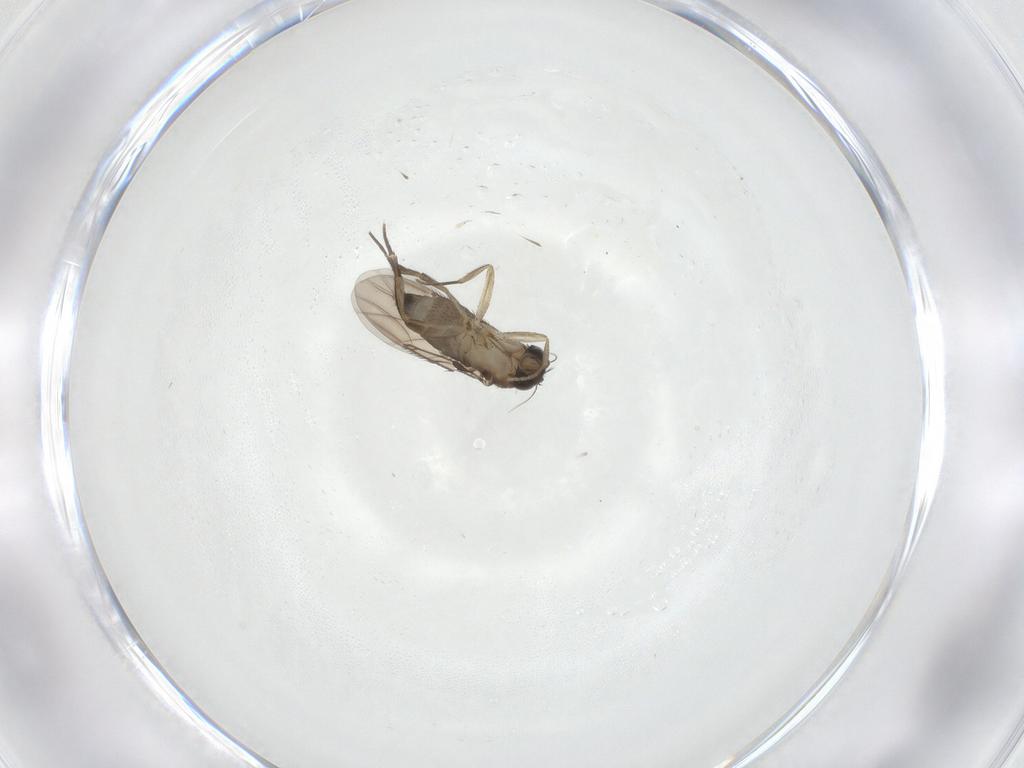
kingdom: Animalia
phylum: Arthropoda
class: Insecta
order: Diptera
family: Phoridae
